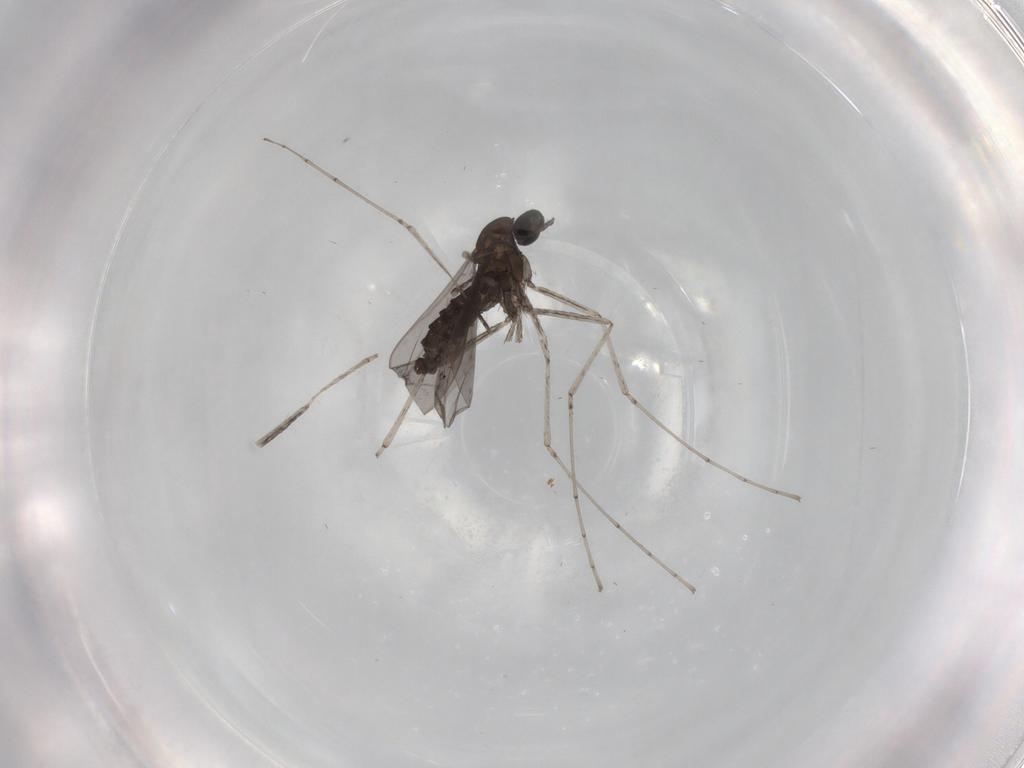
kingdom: Animalia
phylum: Arthropoda
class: Insecta
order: Diptera
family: Cecidomyiidae
